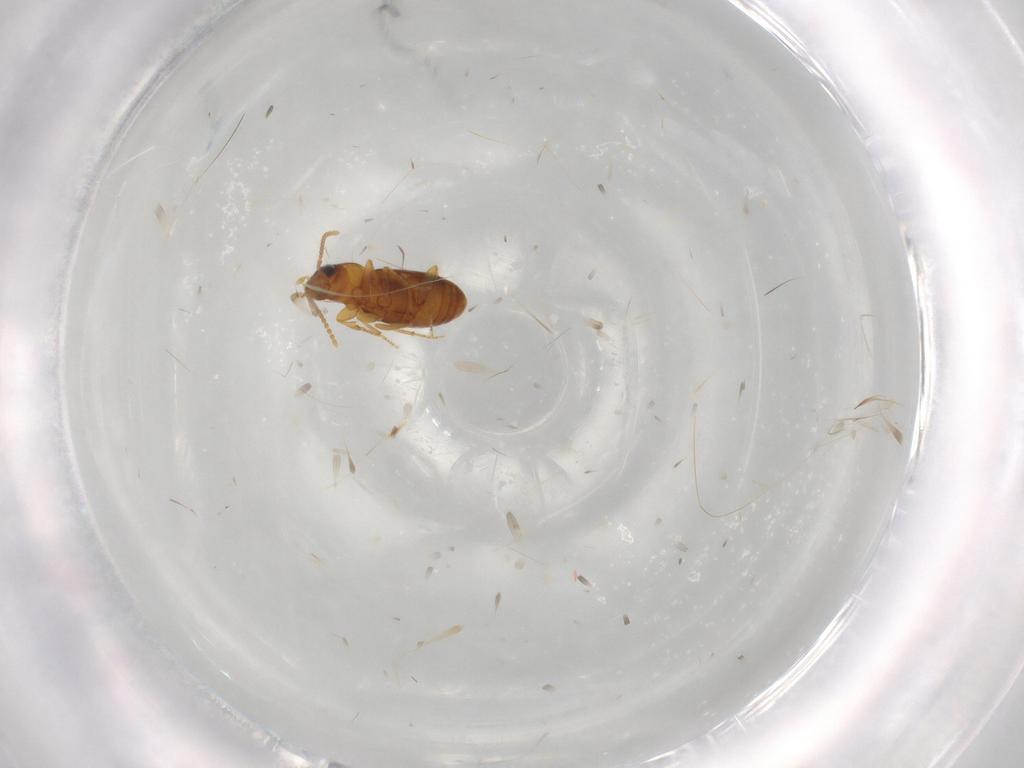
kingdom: Animalia
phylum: Arthropoda
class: Insecta
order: Coleoptera
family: Carabidae
